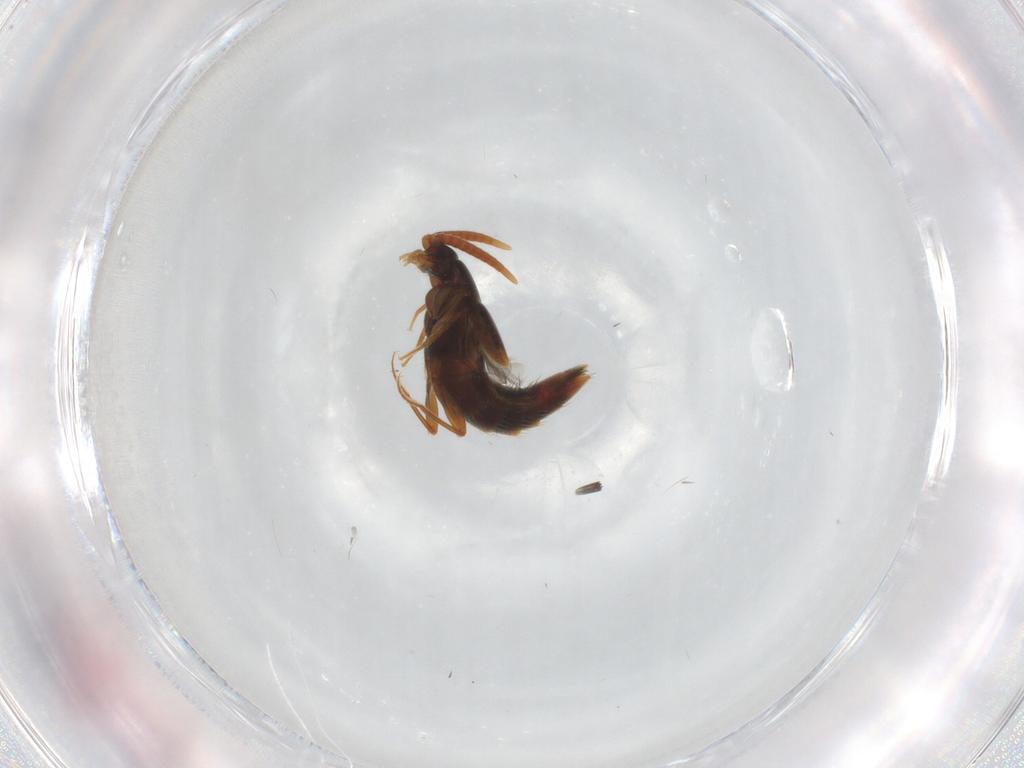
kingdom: Animalia
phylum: Arthropoda
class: Insecta
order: Coleoptera
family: Staphylinidae
